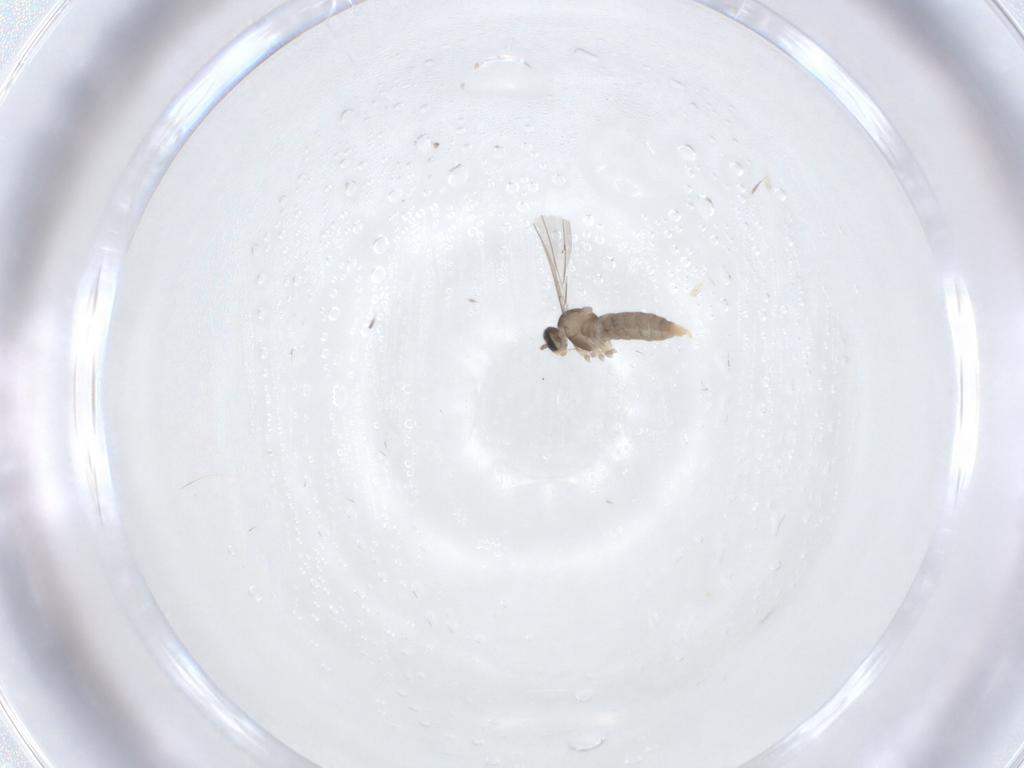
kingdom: Animalia
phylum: Arthropoda
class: Insecta
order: Diptera
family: Cecidomyiidae
